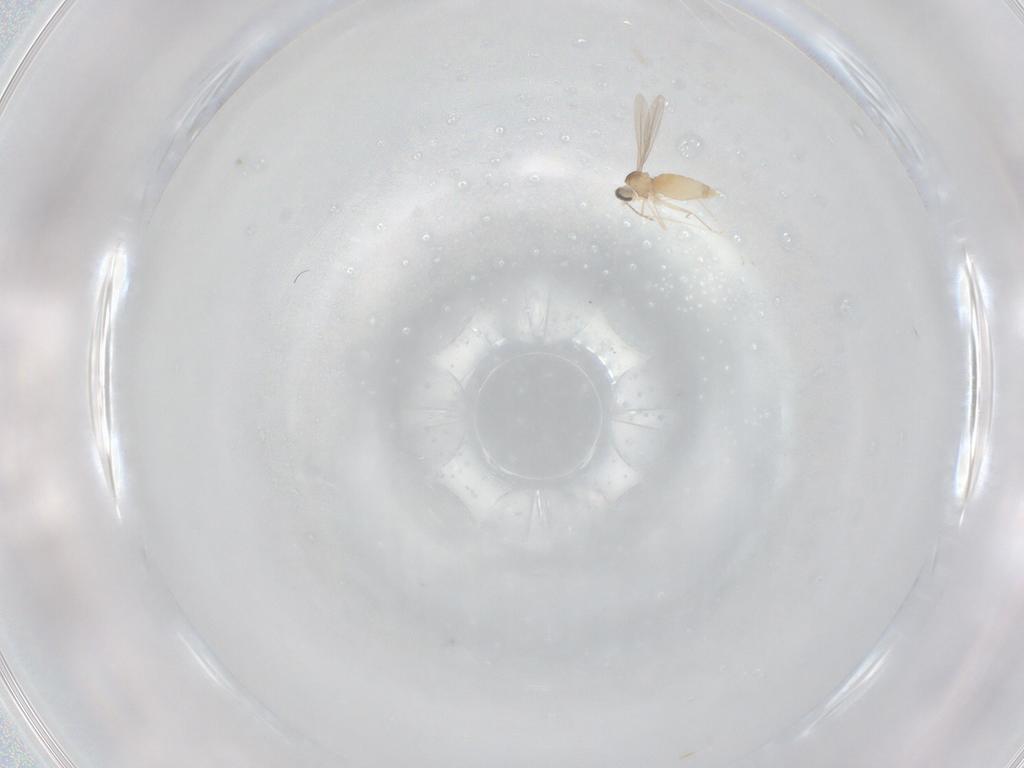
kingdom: Animalia
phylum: Arthropoda
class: Insecta
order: Diptera
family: Cecidomyiidae
